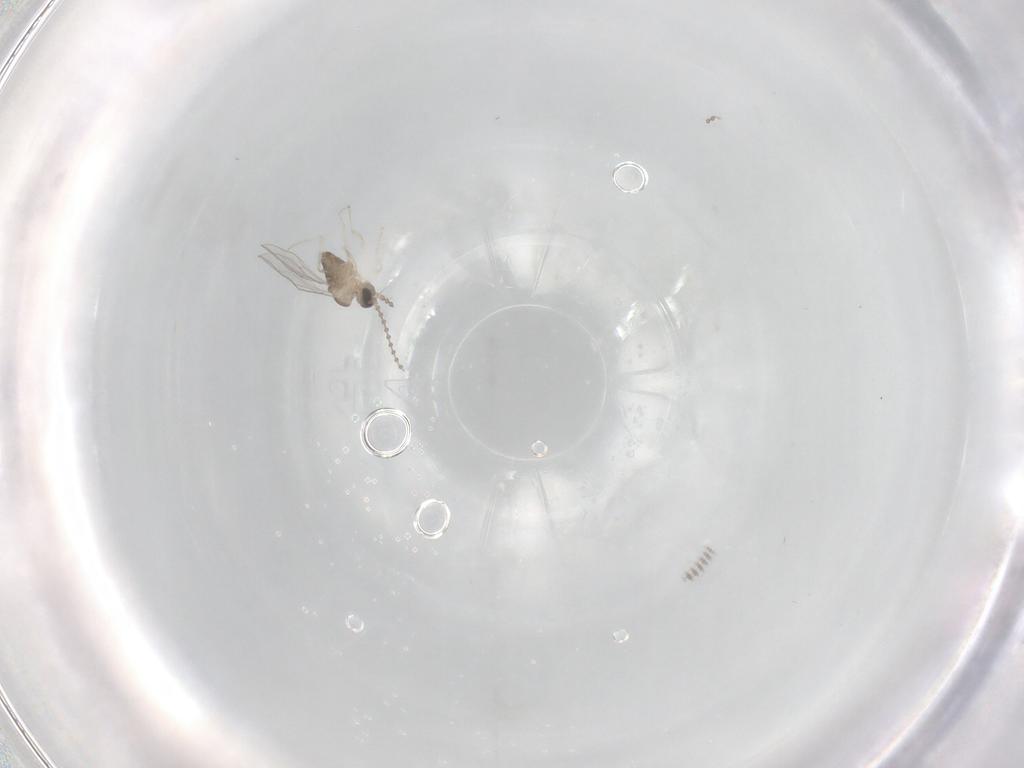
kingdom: Animalia
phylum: Arthropoda
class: Insecta
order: Diptera
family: Cecidomyiidae
